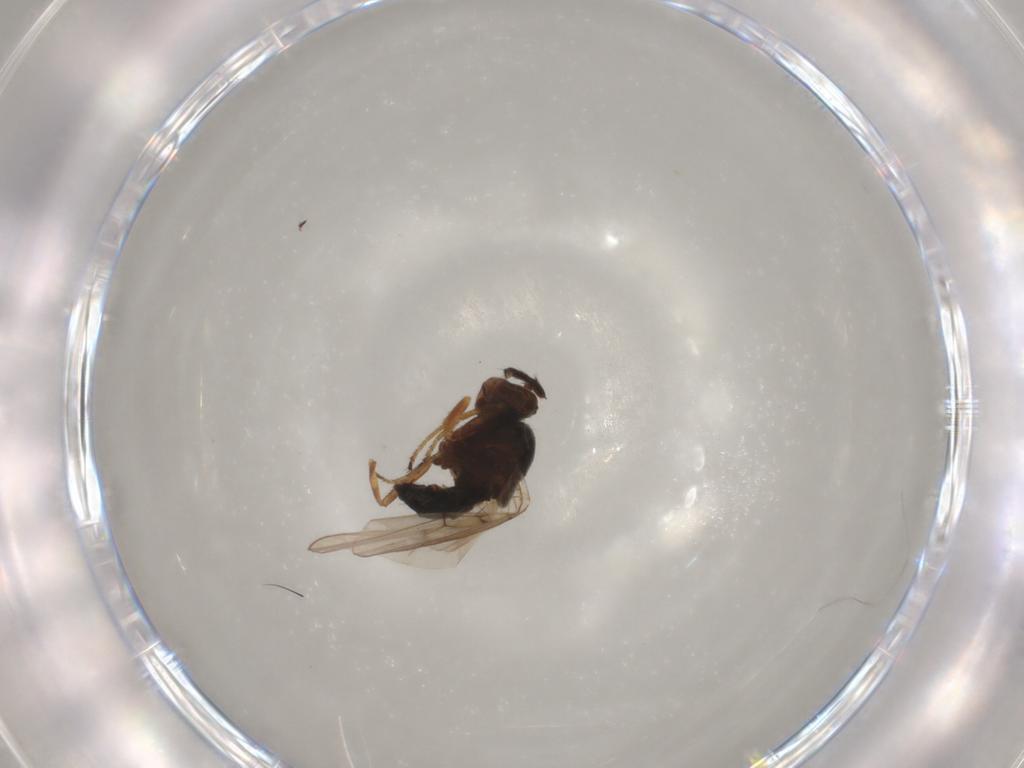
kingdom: Animalia
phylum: Arthropoda
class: Insecta
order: Diptera
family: Ephydridae
